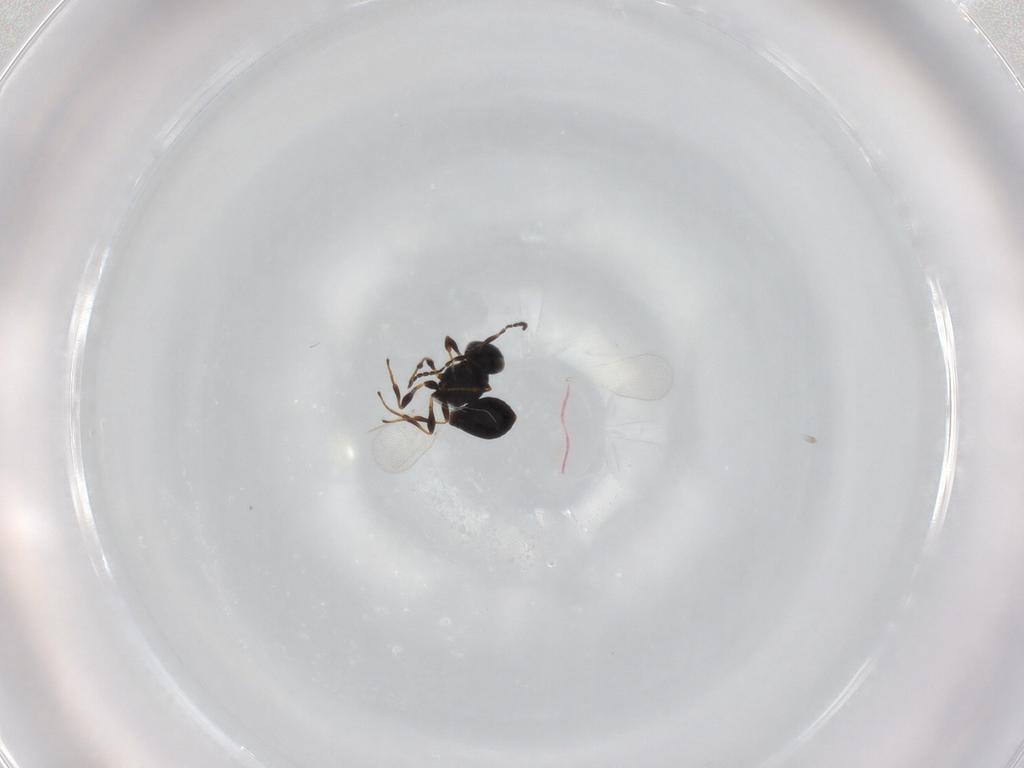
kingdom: Animalia
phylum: Arthropoda
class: Insecta
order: Hymenoptera
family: Platygastridae
